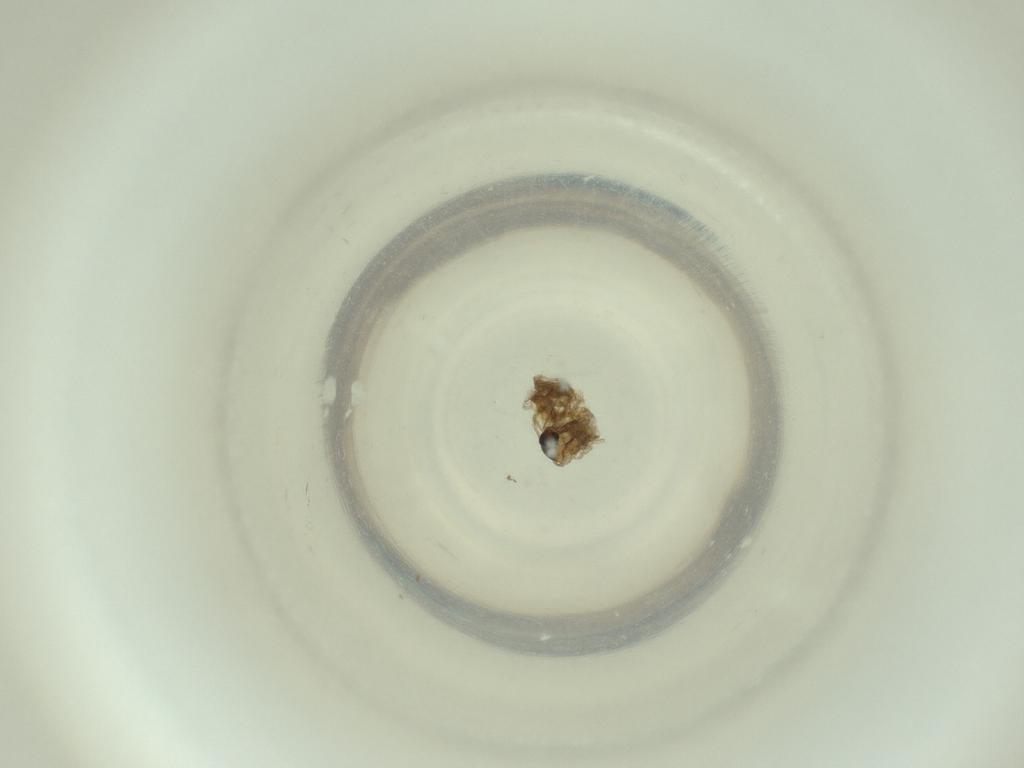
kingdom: Animalia
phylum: Arthropoda
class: Insecta
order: Diptera
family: Cecidomyiidae
